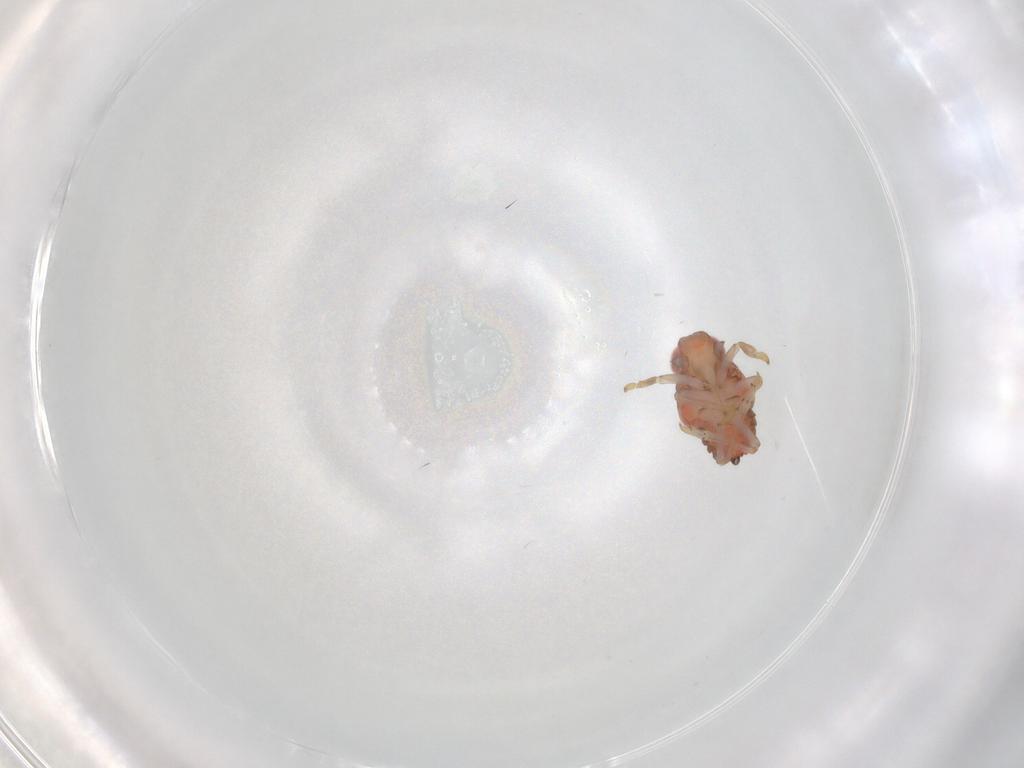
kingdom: Animalia
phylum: Arthropoda
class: Insecta
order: Hemiptera
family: Issidae
